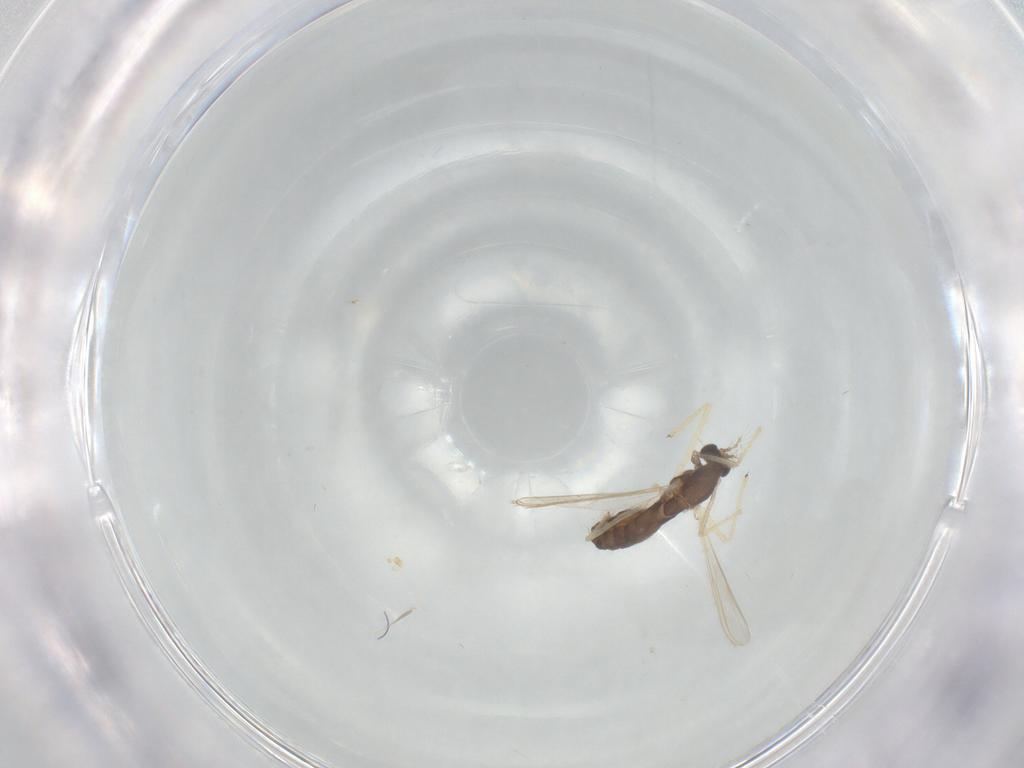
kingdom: Animalia
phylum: Arthropoda
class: Insecta
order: Diptera
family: Chironomidae
